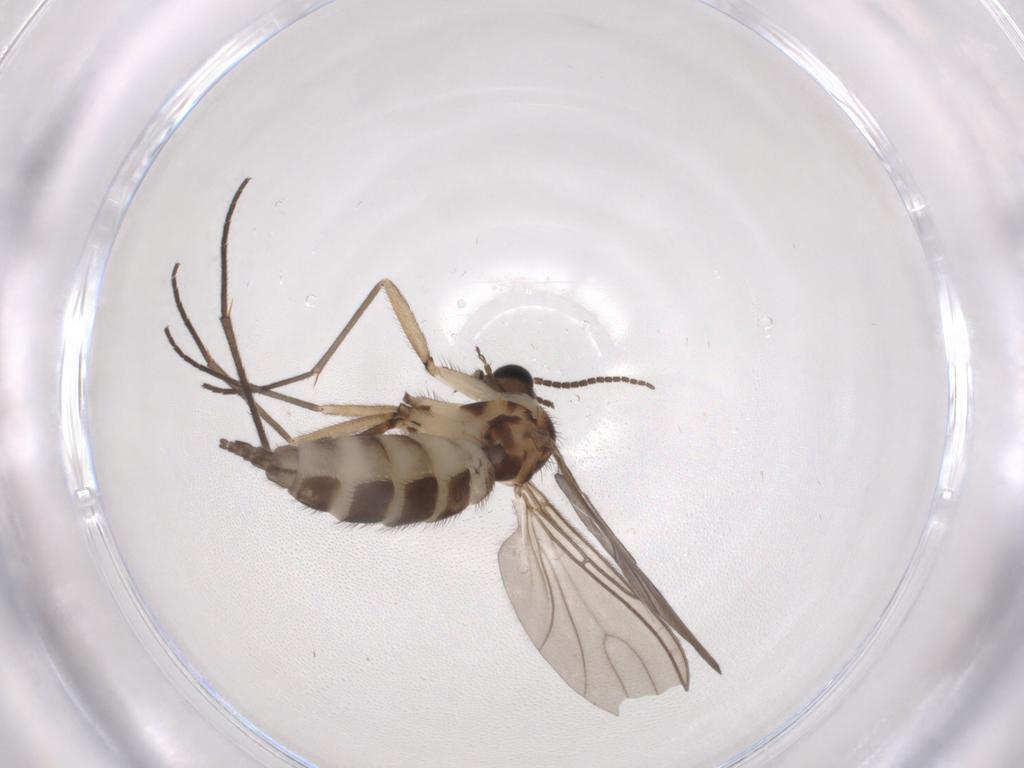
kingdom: Animalia
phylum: Arthropoda
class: Insecta
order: Diptera
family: Sciaridae
